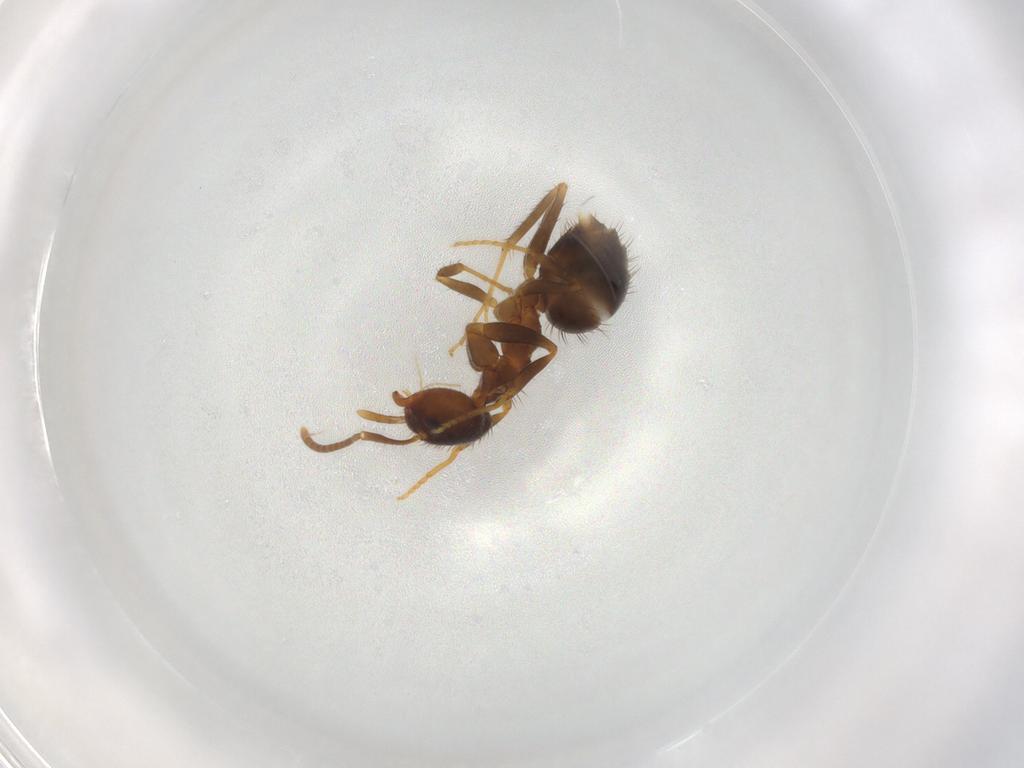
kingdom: Animalia
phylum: Arthropoda
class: Insecta
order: Hymenoptera
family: Formicidae
